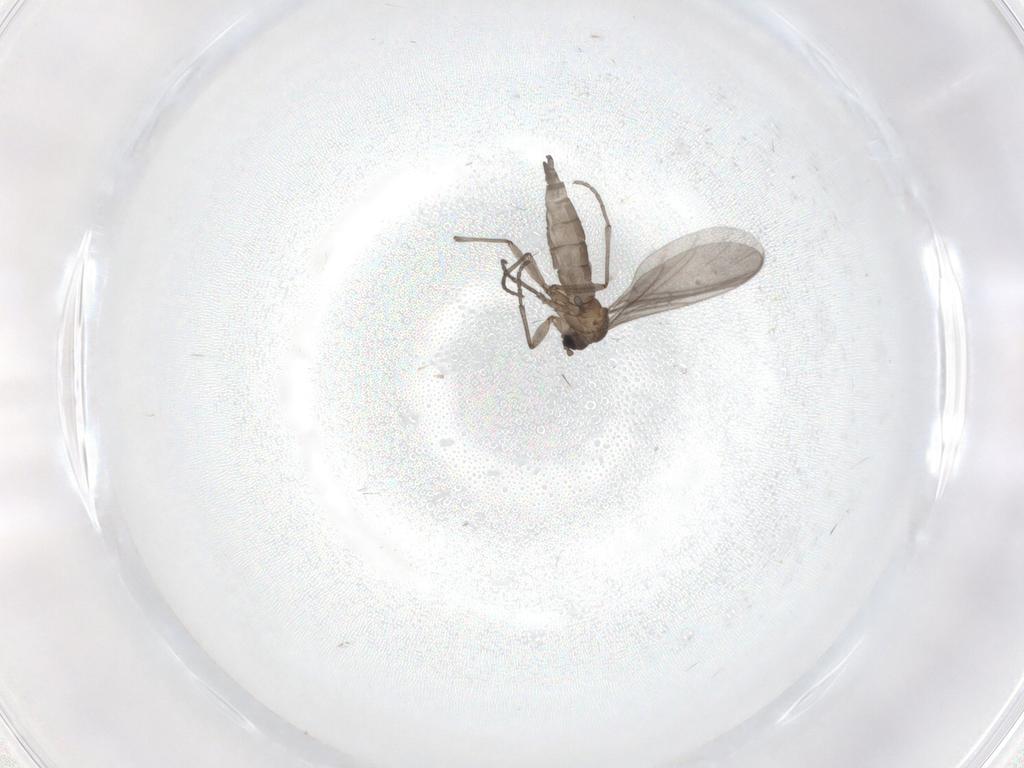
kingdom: Animalia
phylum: Arthropoda
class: Insecta
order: Diptera
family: Sciaridae
